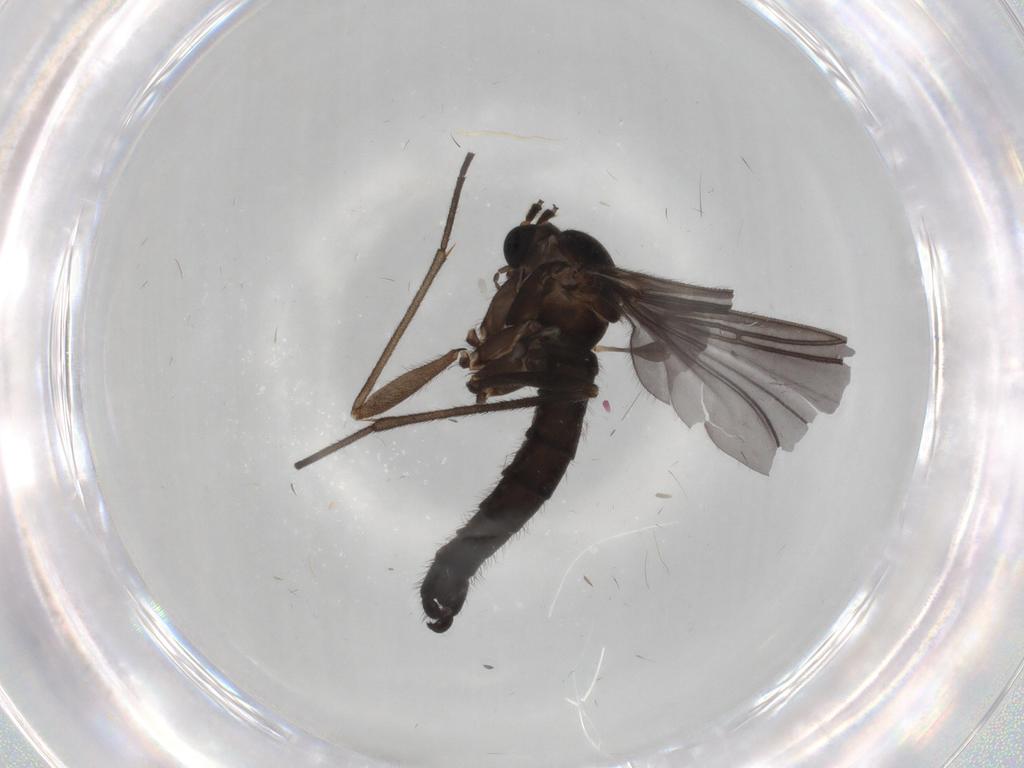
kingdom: Animalia
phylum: Arthropoda
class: Insecta
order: Diptera
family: Sciaridae
